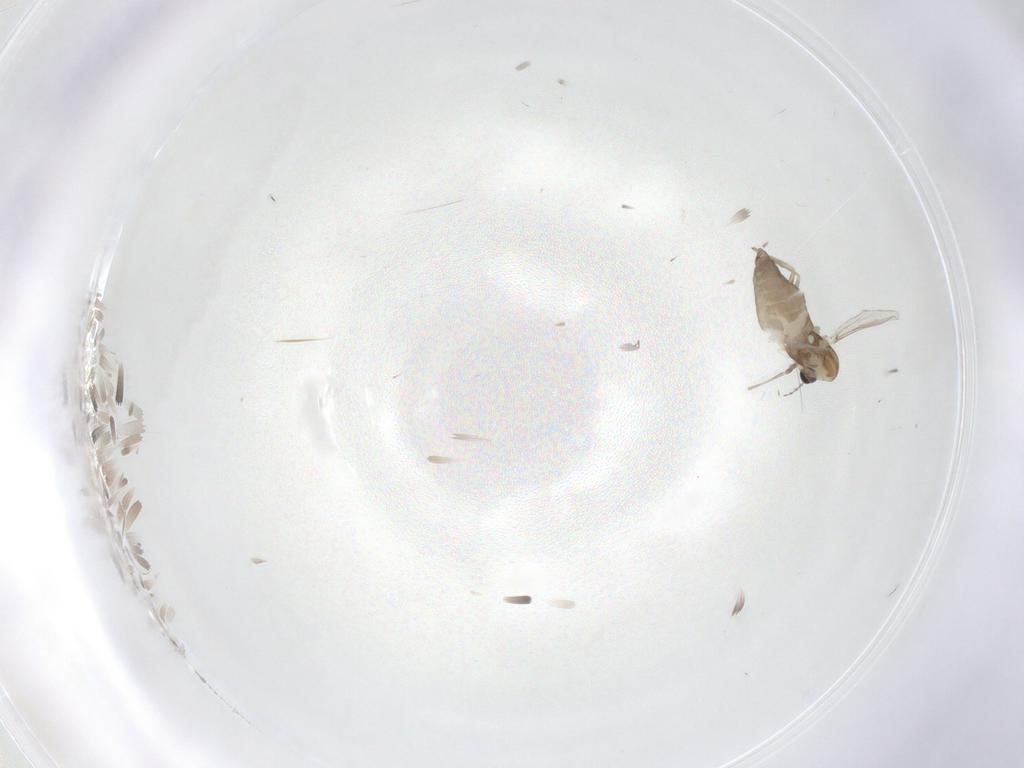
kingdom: Animalia
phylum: Arthropoda
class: Insecta
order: Diptera
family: Chironomidae
